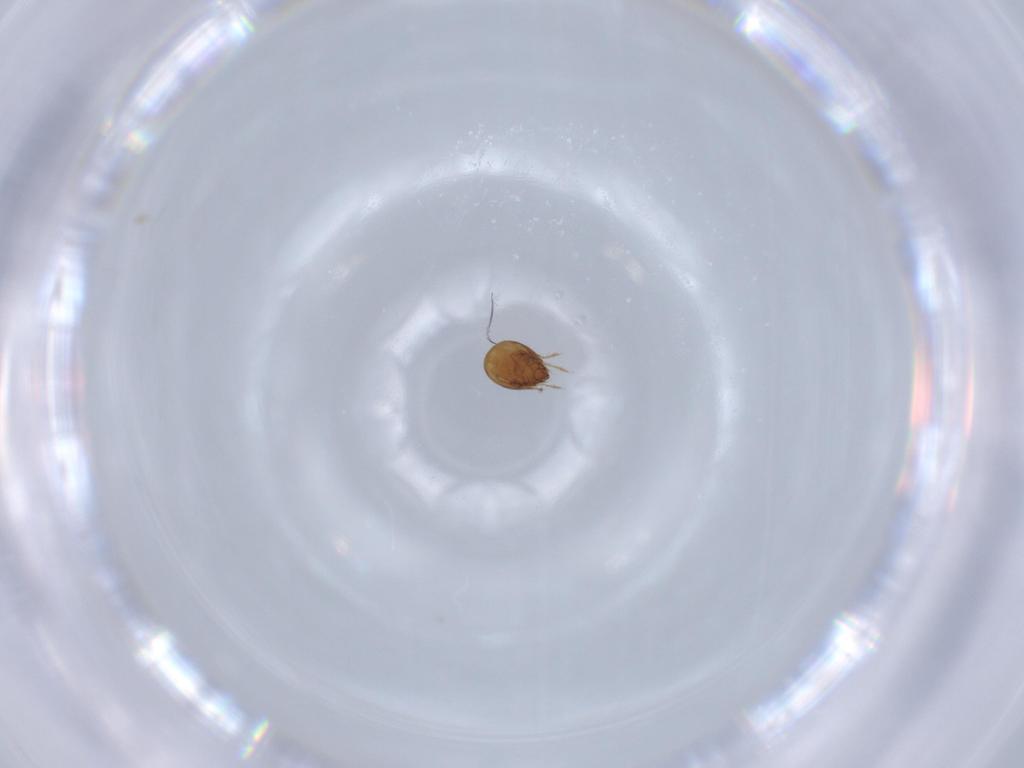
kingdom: Animalia
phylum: Arthropoda
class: Arachnida
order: Sarcoptiformes
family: Ceratozetidae
